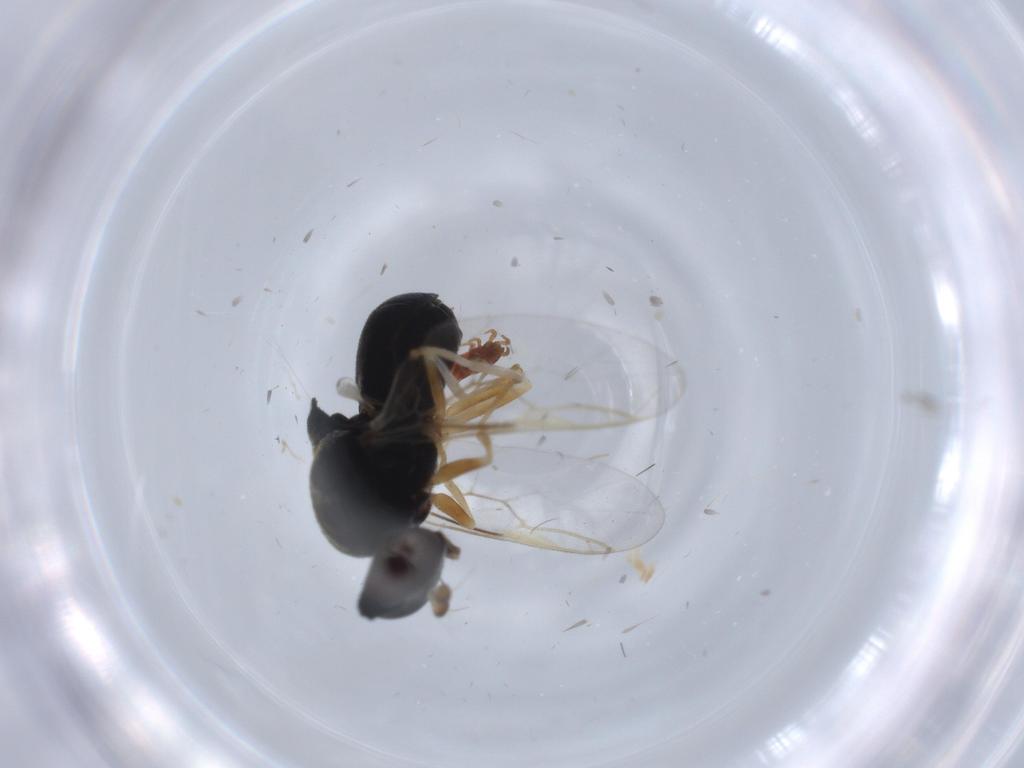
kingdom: Animalia
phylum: Arthropoda
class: Insecta
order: Diptera
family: Stratiomyidae
